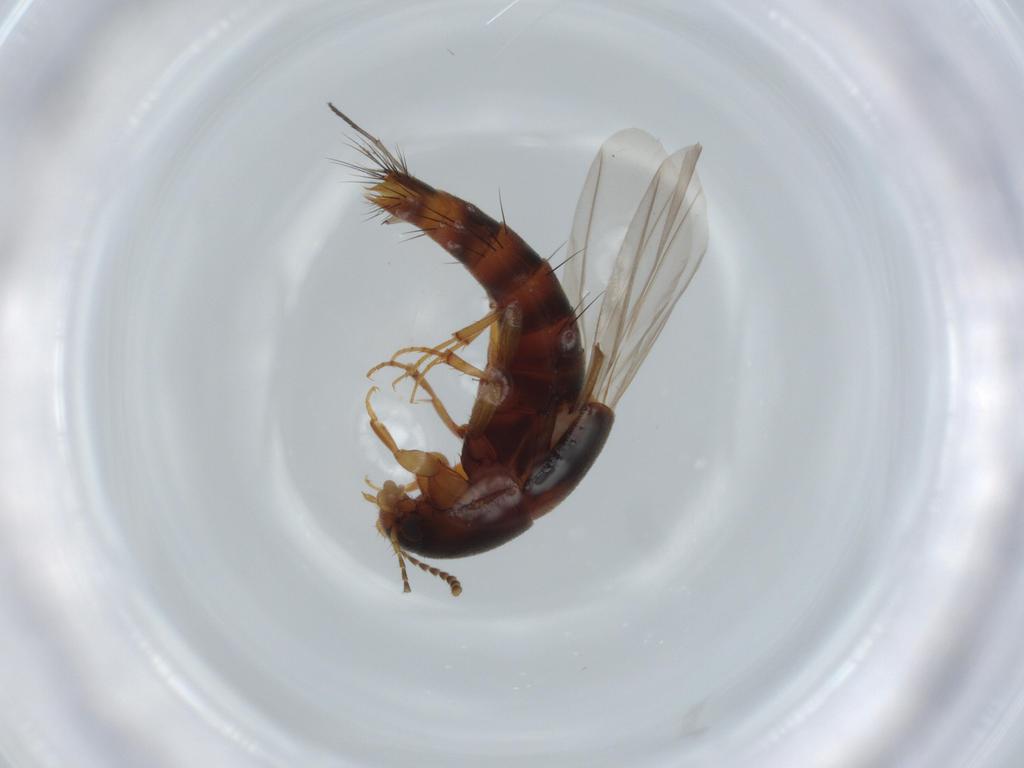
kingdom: Animalia
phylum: Arthropoda
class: Insecta
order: Coleoptera
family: Staphylinidae
